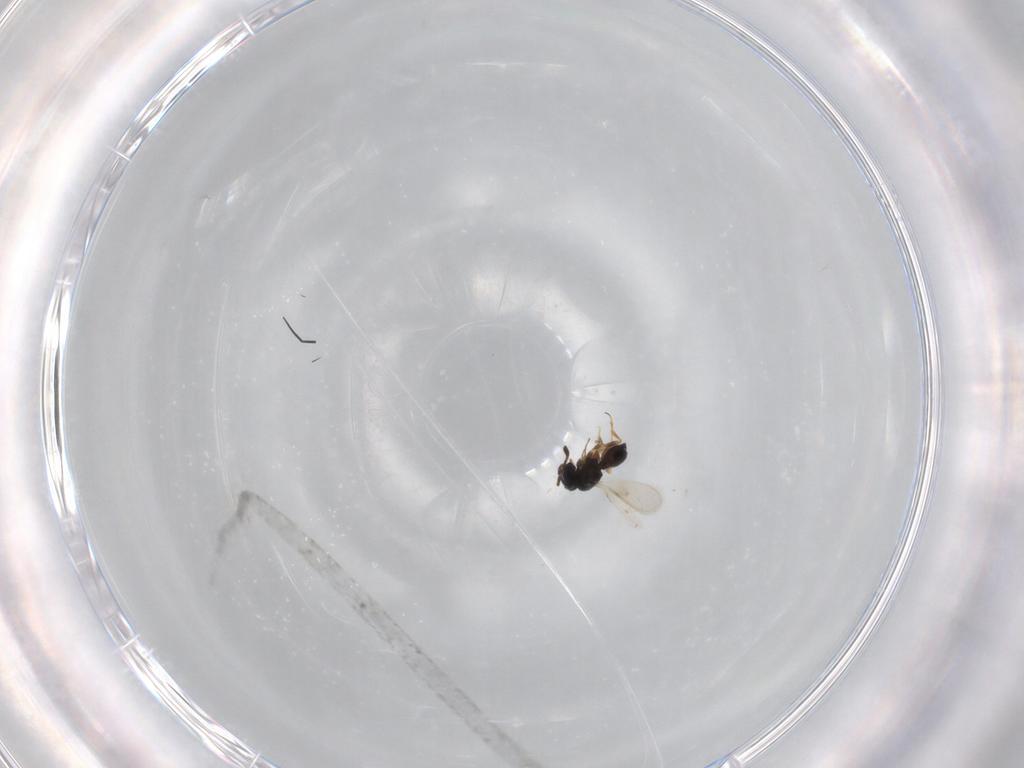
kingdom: Animalia
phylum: Arthropoda
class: Insecta
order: Hymenoptera
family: Scelionidae
